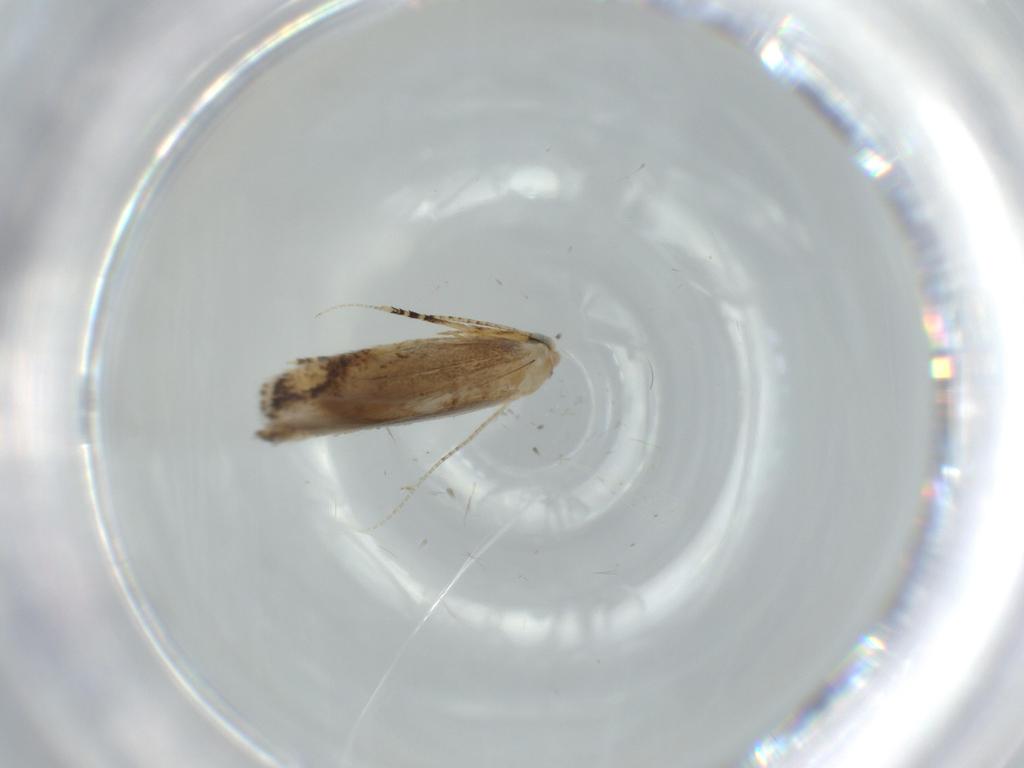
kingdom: Animalia
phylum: Arthropoda
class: Insecta
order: Lepidoptera
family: Bucculatricidae
